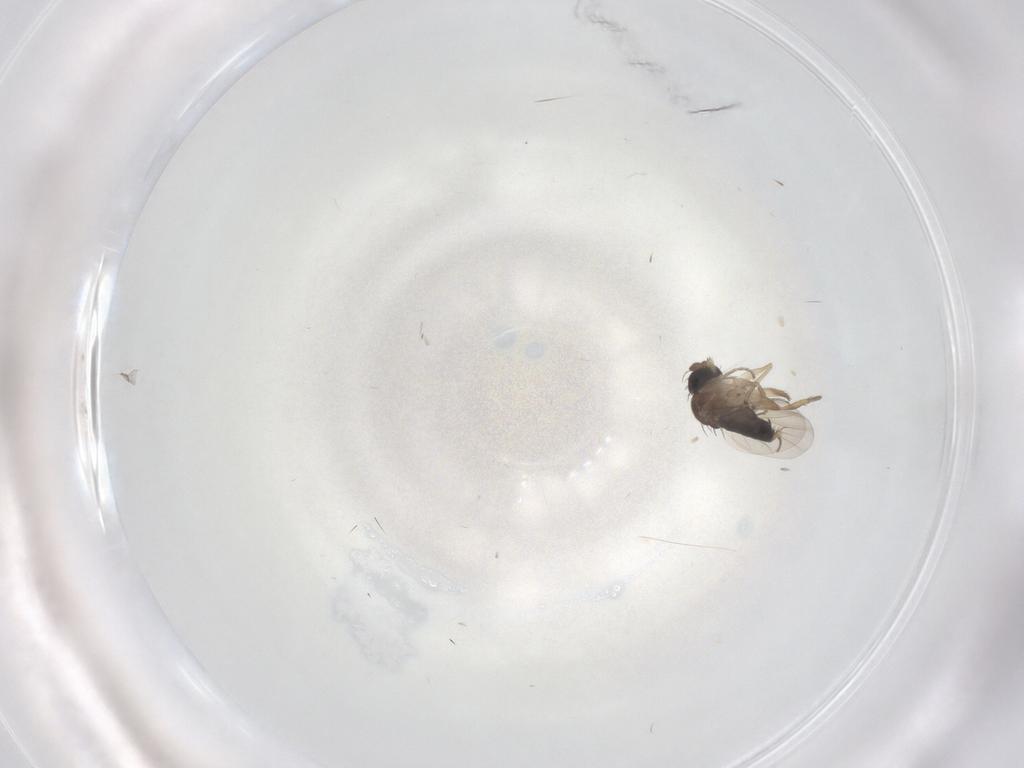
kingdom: Animalia
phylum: Arthropoda
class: Insecta
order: Diptera
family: Phoridae
